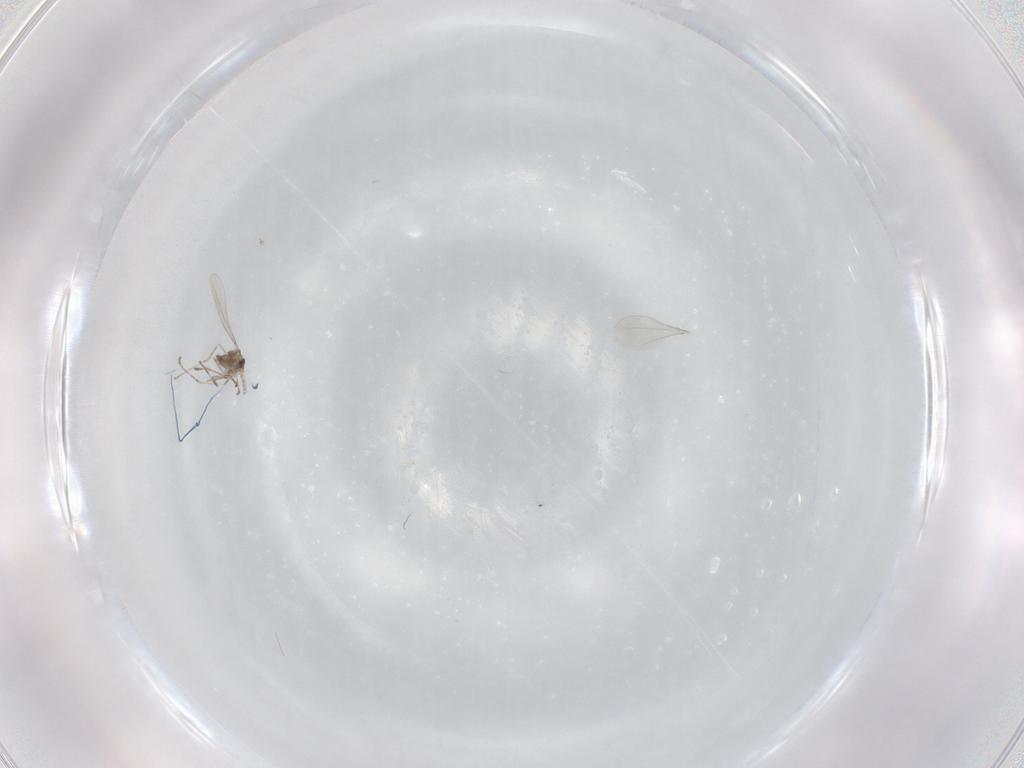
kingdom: Animalia
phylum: Arthropoda
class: Insecta
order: Diptera
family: Cecidomyiidae
